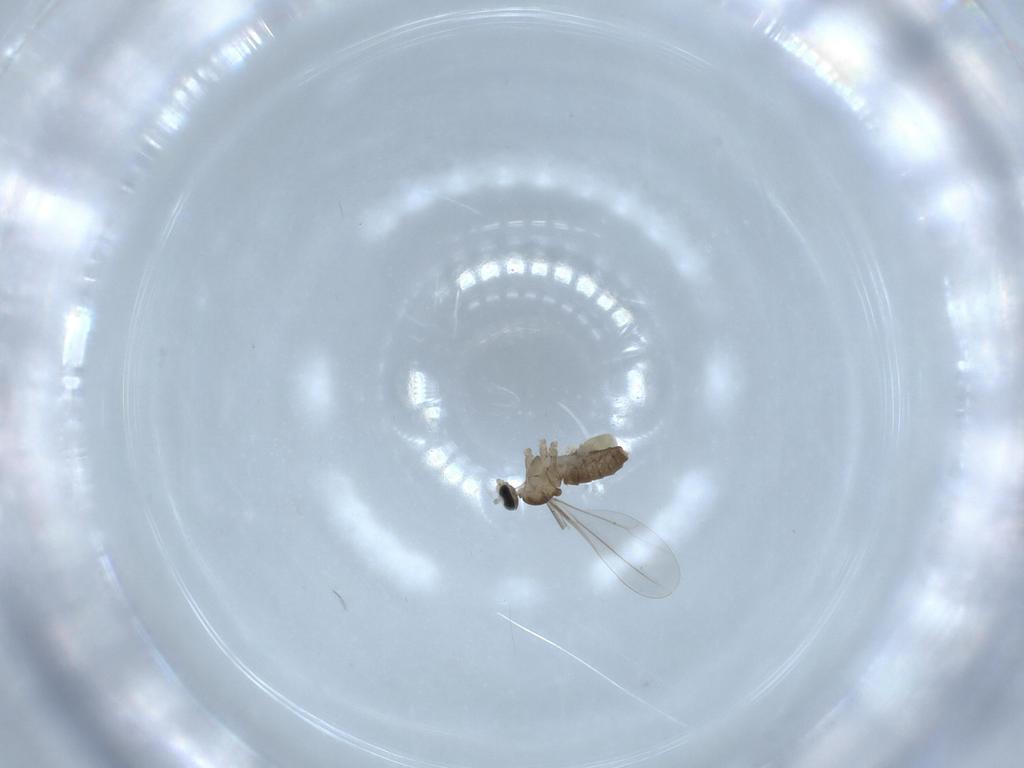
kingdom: Animalia
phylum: Arthropoda
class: Insecta
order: Diptera
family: Cecidomyiidae
